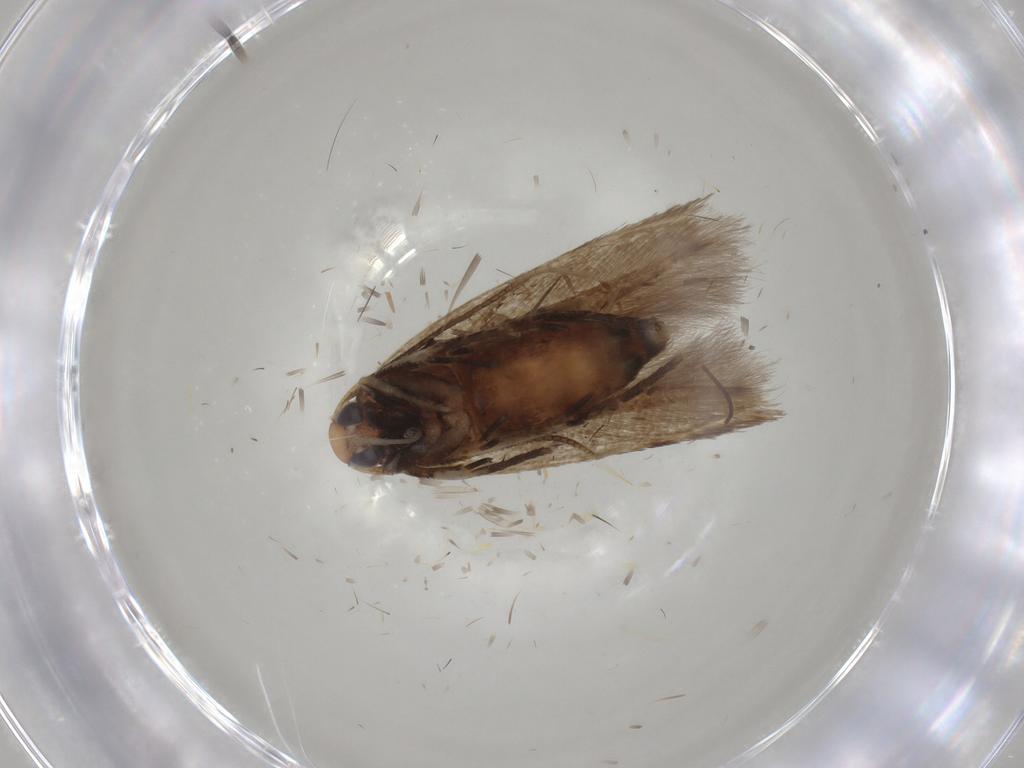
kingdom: Animalia
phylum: Arthropoda
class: Insecta
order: Lepidoptera
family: Cosmopterigidae
